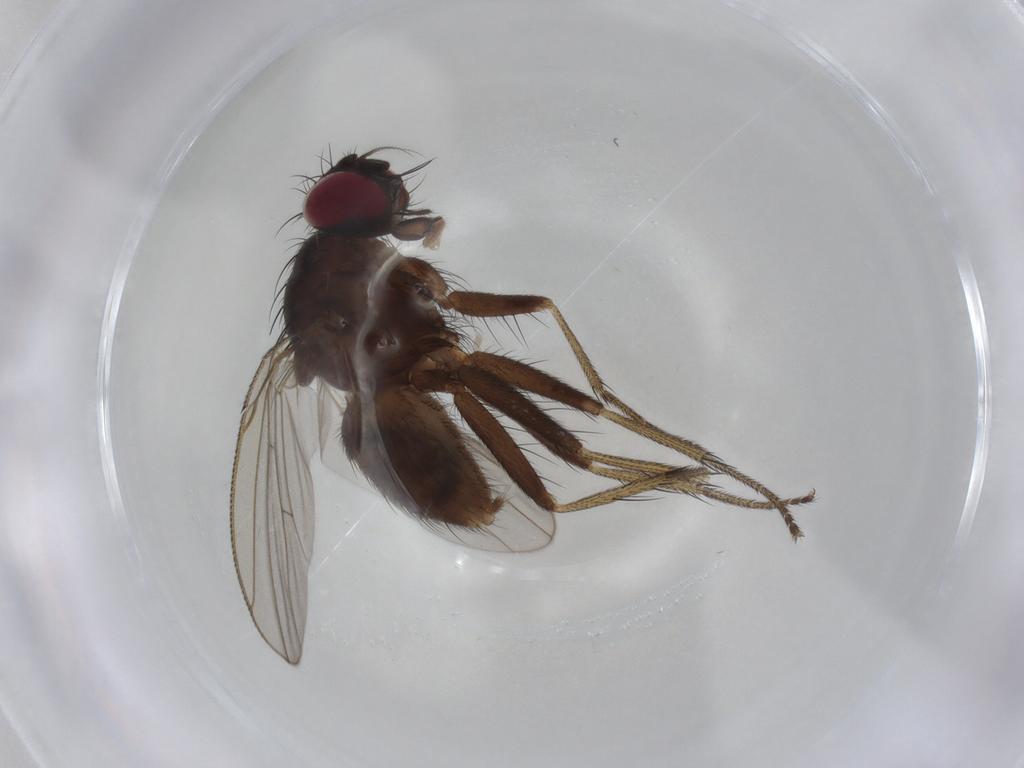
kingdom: Animalia
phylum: Arthropoda
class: Insecta
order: Diptera
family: Muscidae
